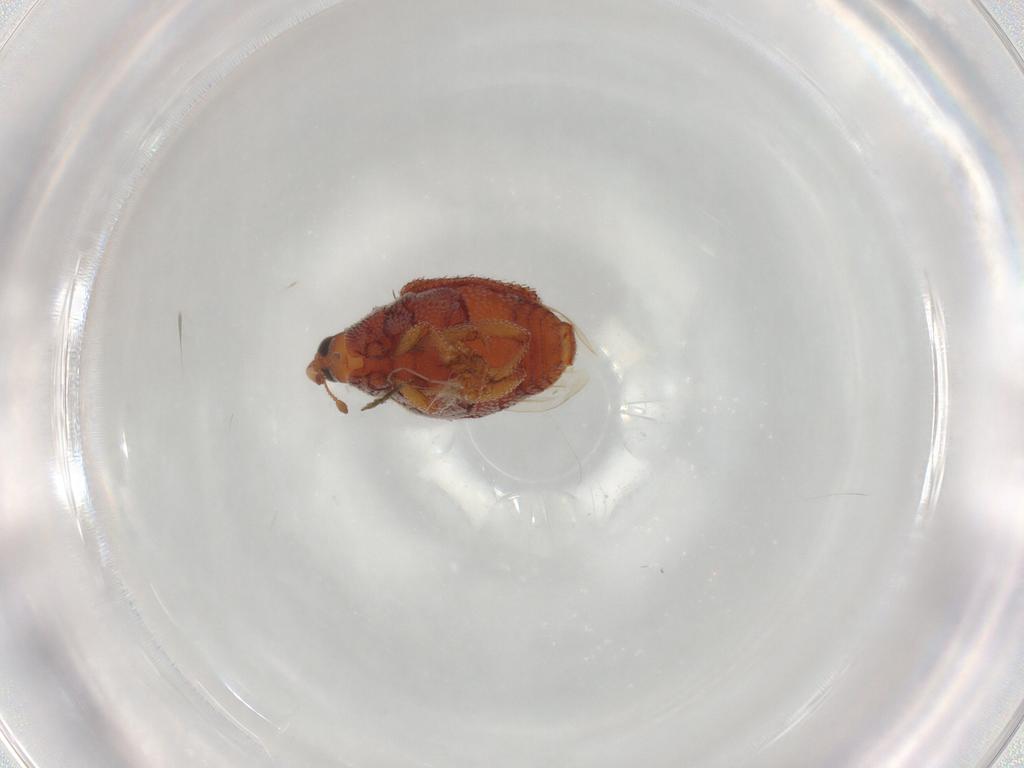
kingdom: Animalia
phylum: Arthropoda
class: Insecta
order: Coleoptera
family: Curculionidae
